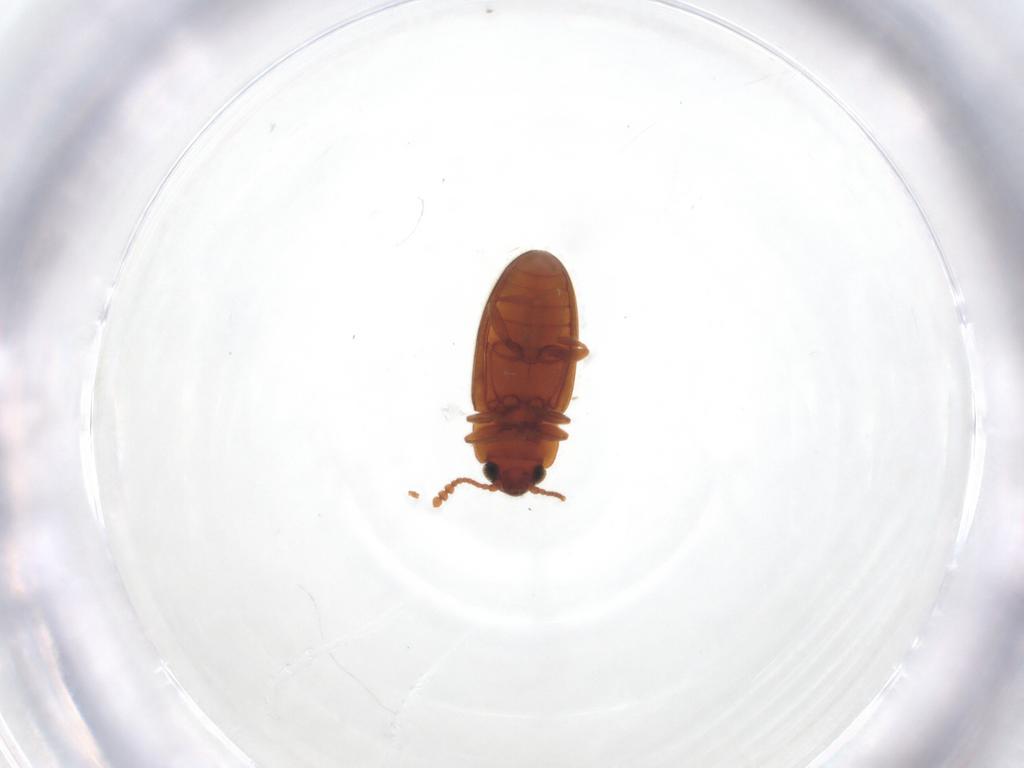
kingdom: Animalia
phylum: Arthropoda
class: Insecta
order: Coleoptera
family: Erotylidae
